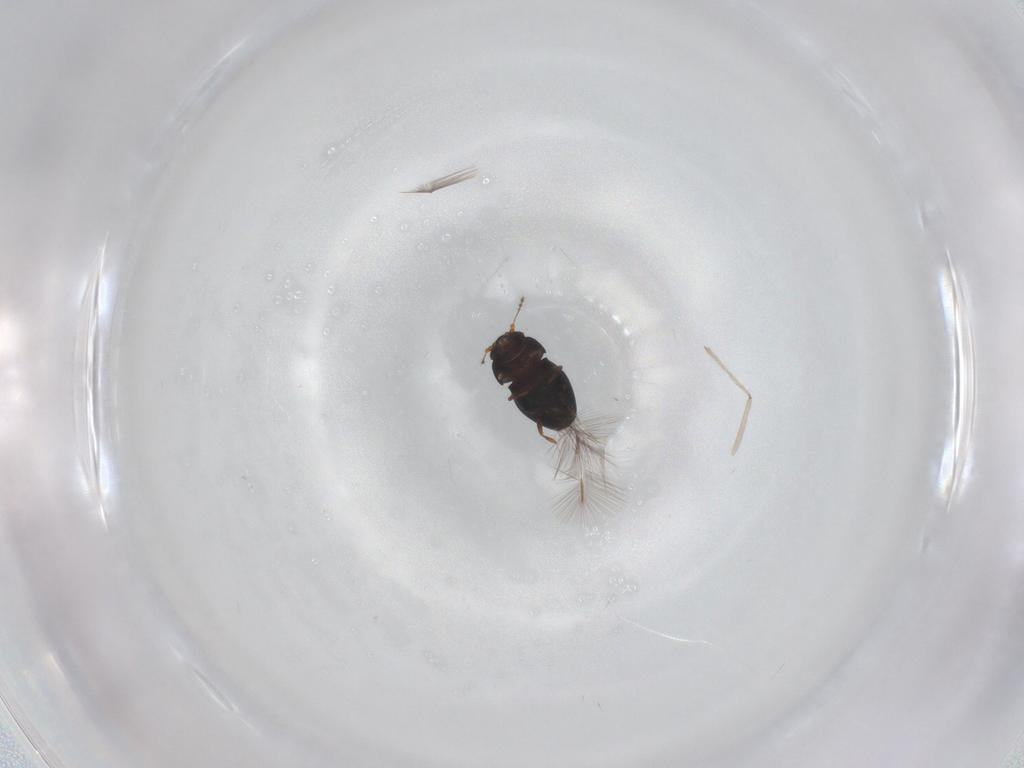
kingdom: Animalia
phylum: Arthropoda
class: Insecta
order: Coleoptera
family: Ptiliidae
